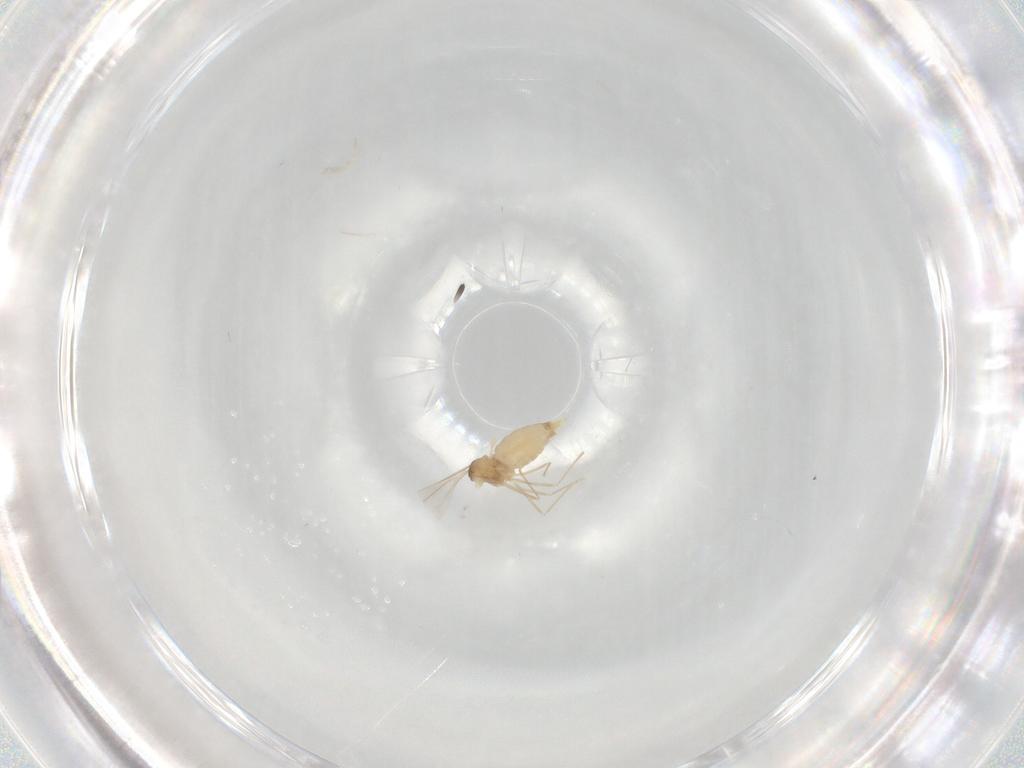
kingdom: Animalia
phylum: Arthropoda
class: Insecta
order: Diptera
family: Cecidomyiidae
